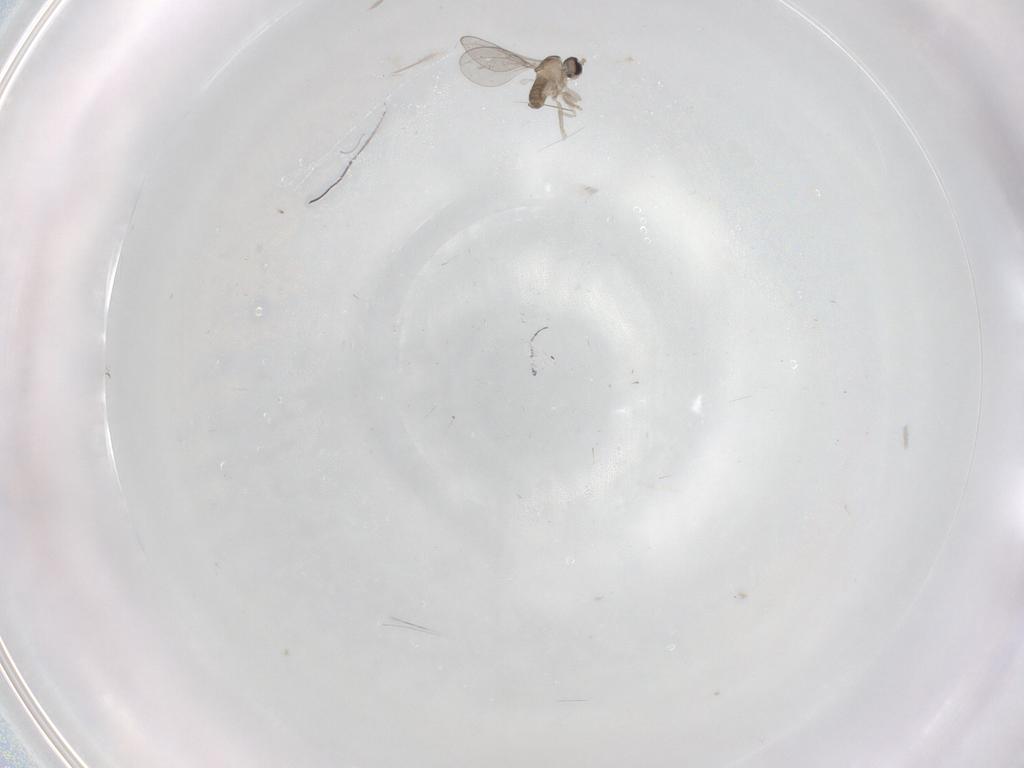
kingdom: Animalia
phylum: Arthropoda
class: Insecta
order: Diptera
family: Cecidomyiidae
